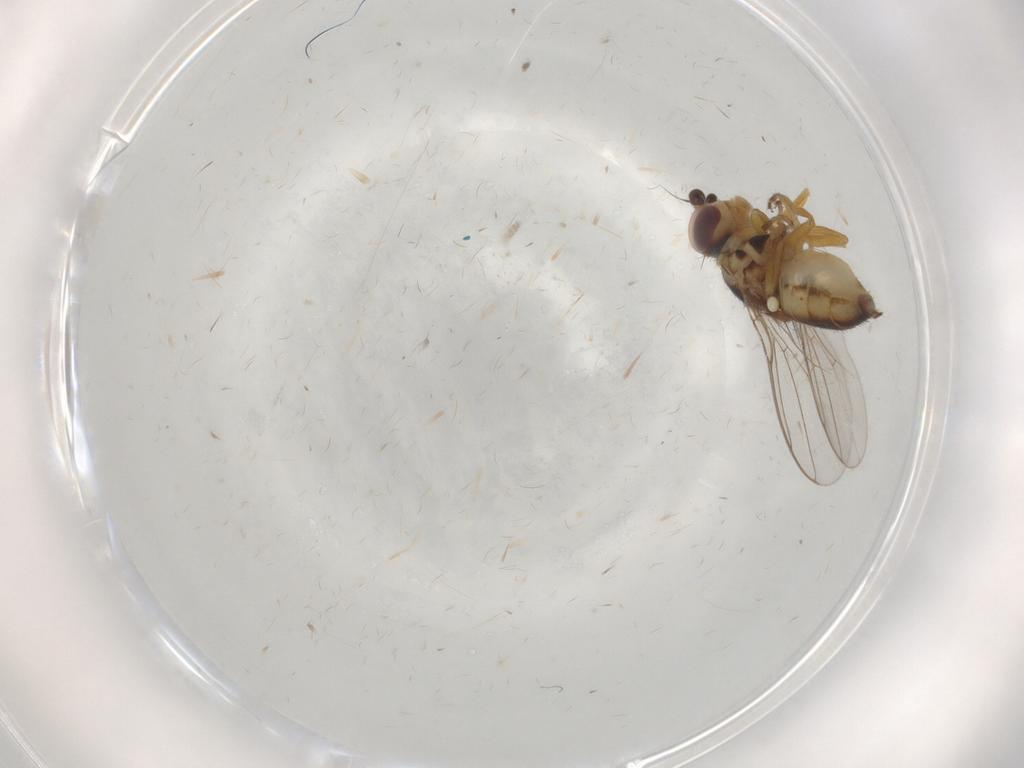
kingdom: Animalia
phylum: Arthropoda
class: Insecta
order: Diptera
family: Chloropidae
